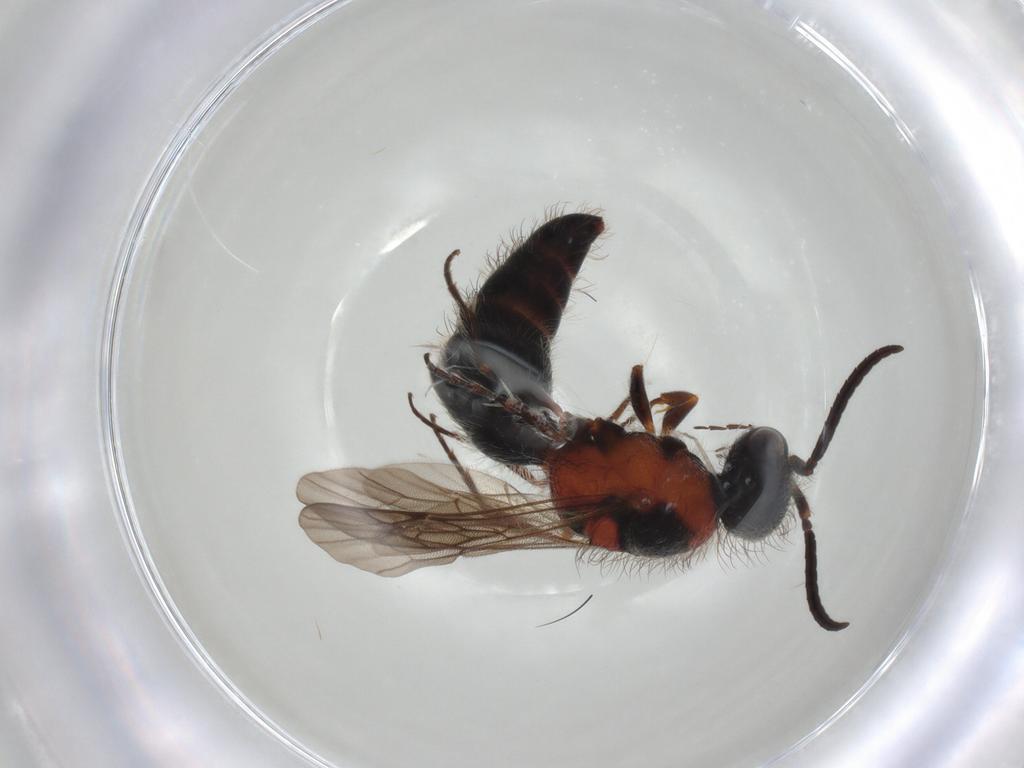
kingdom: Animalia
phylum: Arthropoda
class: Insecta
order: Hymenoptera
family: Mutillidae
